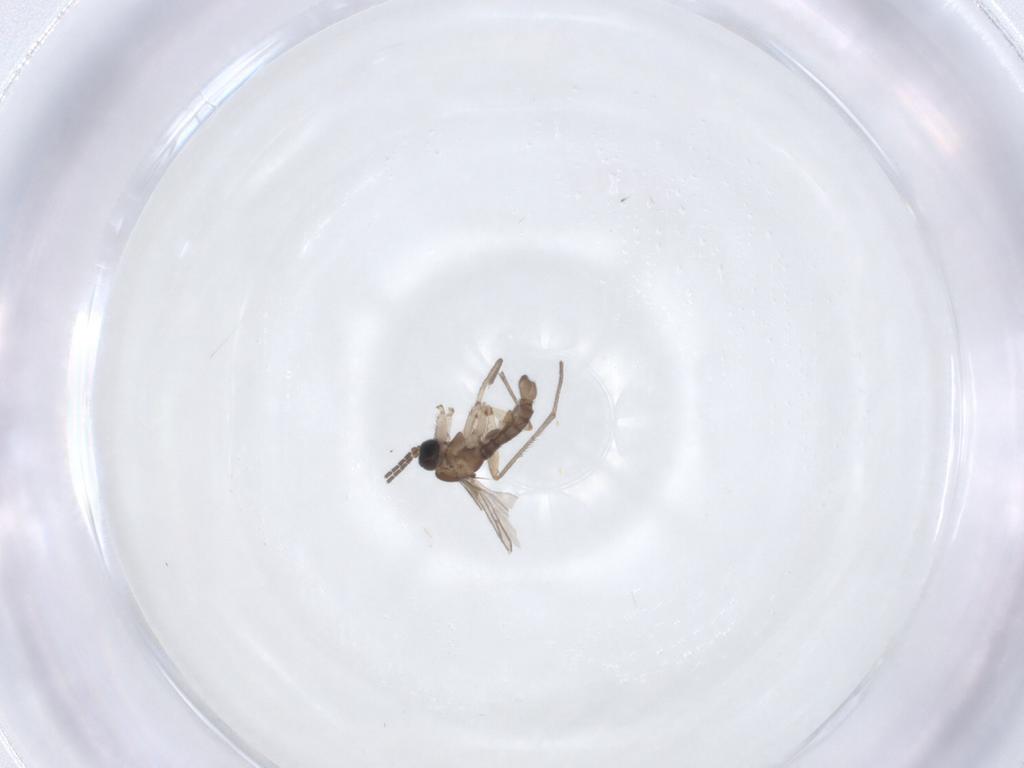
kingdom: Animalia
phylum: Arthropoda
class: Insecta
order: Diptera
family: Sciaridae
